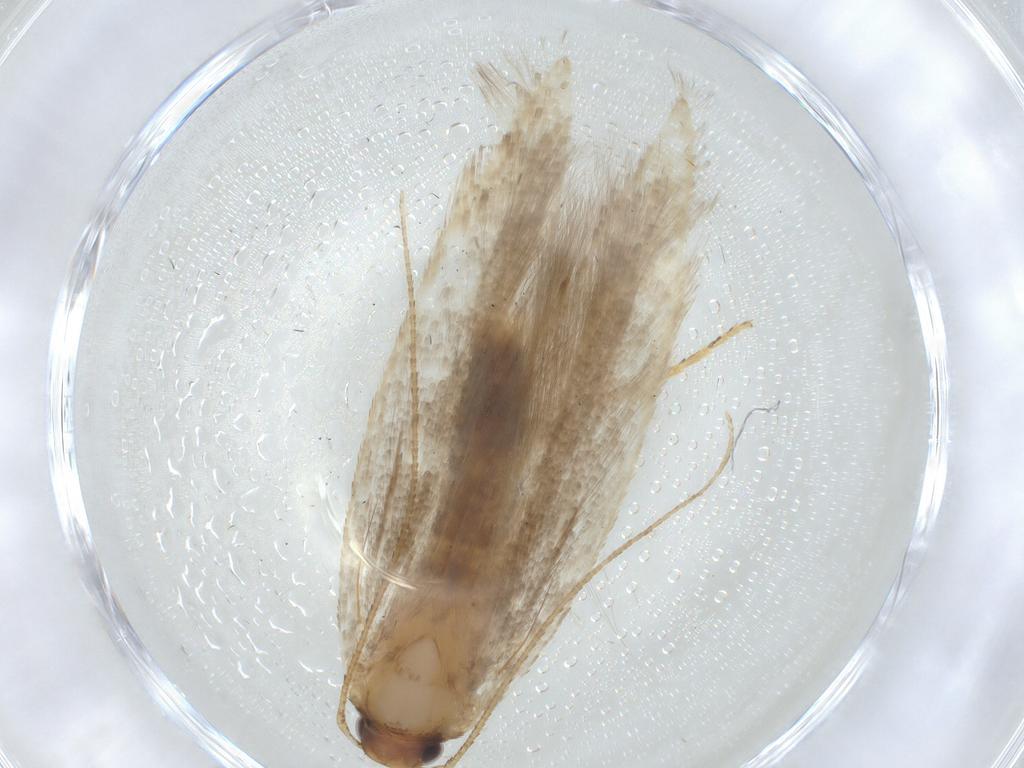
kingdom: Animalia
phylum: Arthropoda
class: Insecta
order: Lepidoptera
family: Gelechiidae
